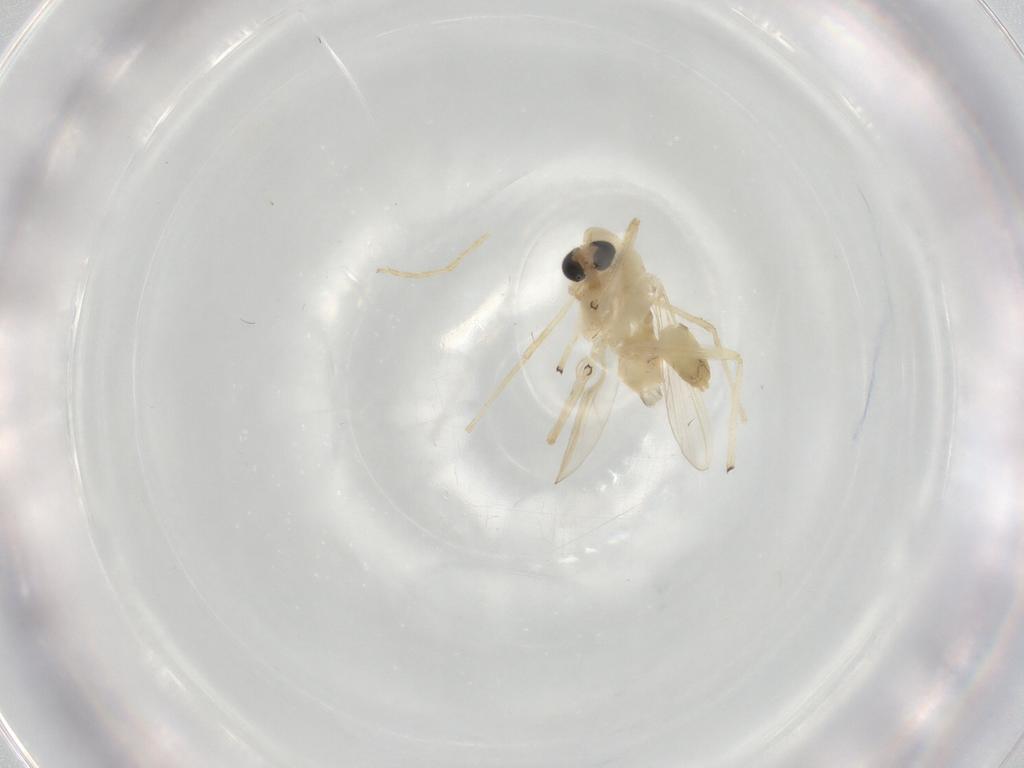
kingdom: Animalia
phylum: Arthropoda
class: Insecta
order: Diptera
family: Chironomidae
